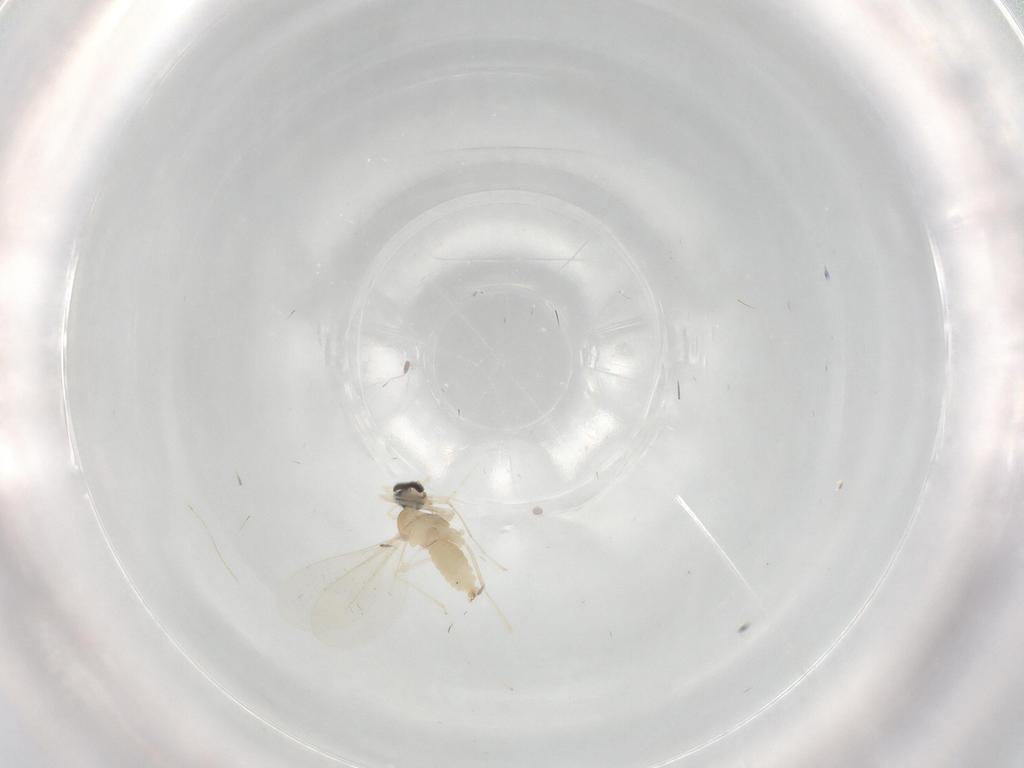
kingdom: Animalia
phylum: Arthropoda
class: Insecta
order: Diptera
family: Cecidomyiidae
